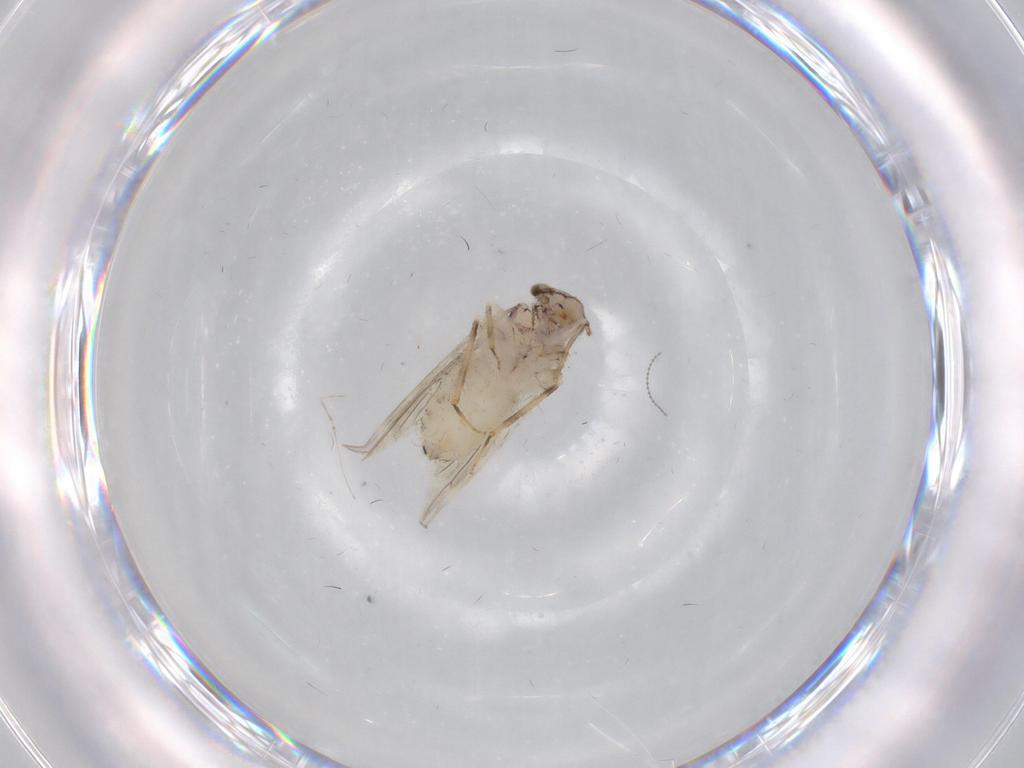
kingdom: Animalia
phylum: Arthropoda
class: Insecta
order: Psocodea
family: Lepidopsocidae
